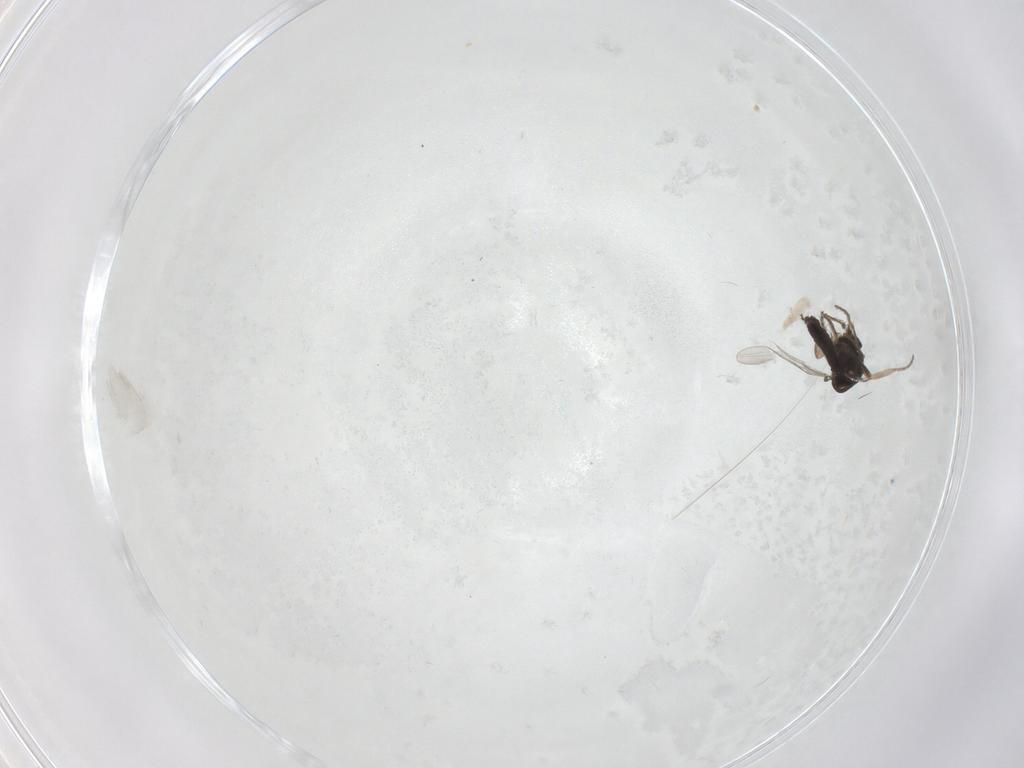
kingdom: Animalia
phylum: Arthropoda
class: Insecta
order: Diptera
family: Ceratopogonidae
